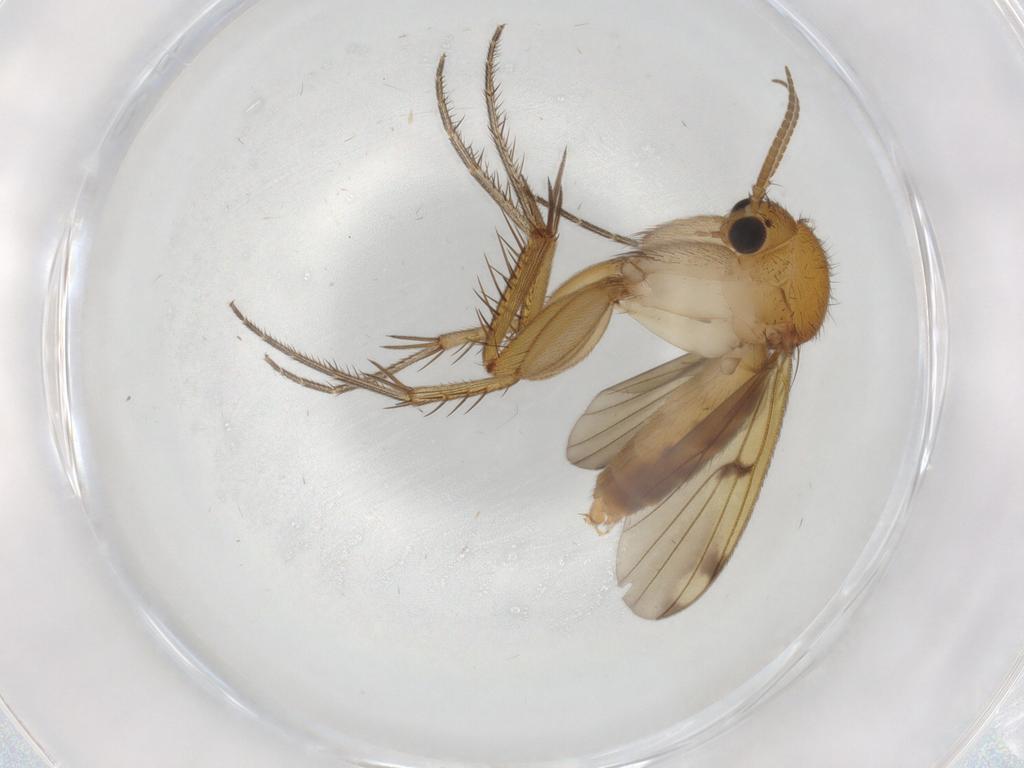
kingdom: Animalia
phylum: Arthropoda
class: Insecta
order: Diptera
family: Phoridae
